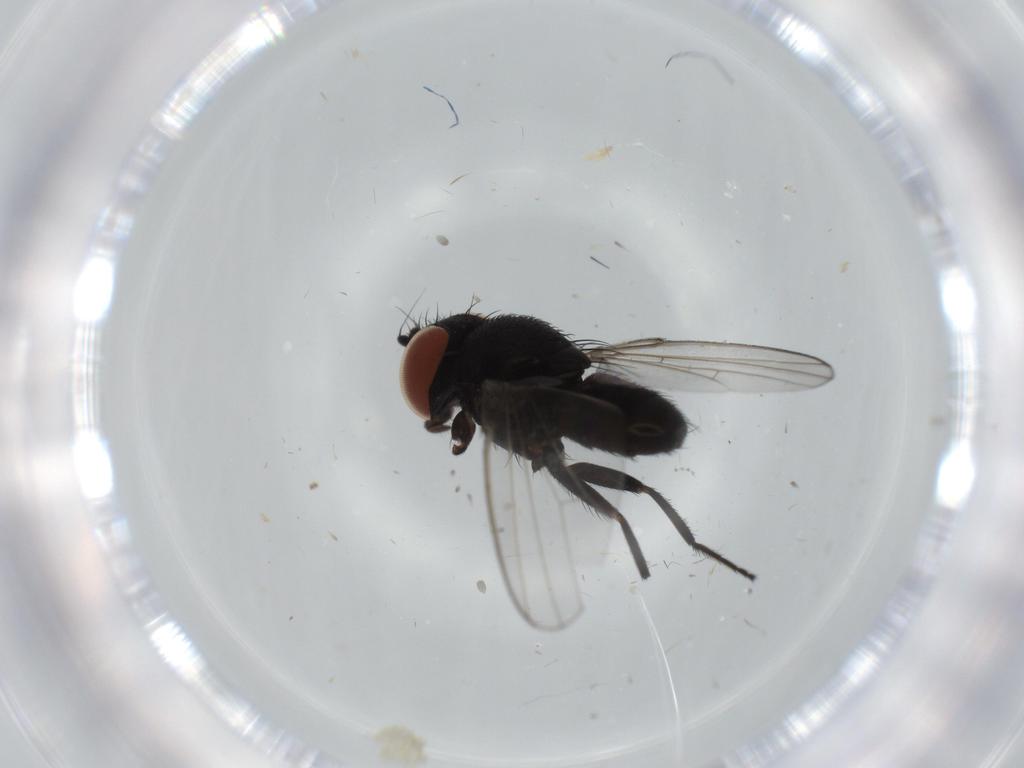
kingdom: Animalia
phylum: Arthropoda
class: Insecta
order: Diptera
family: Milichiidae
